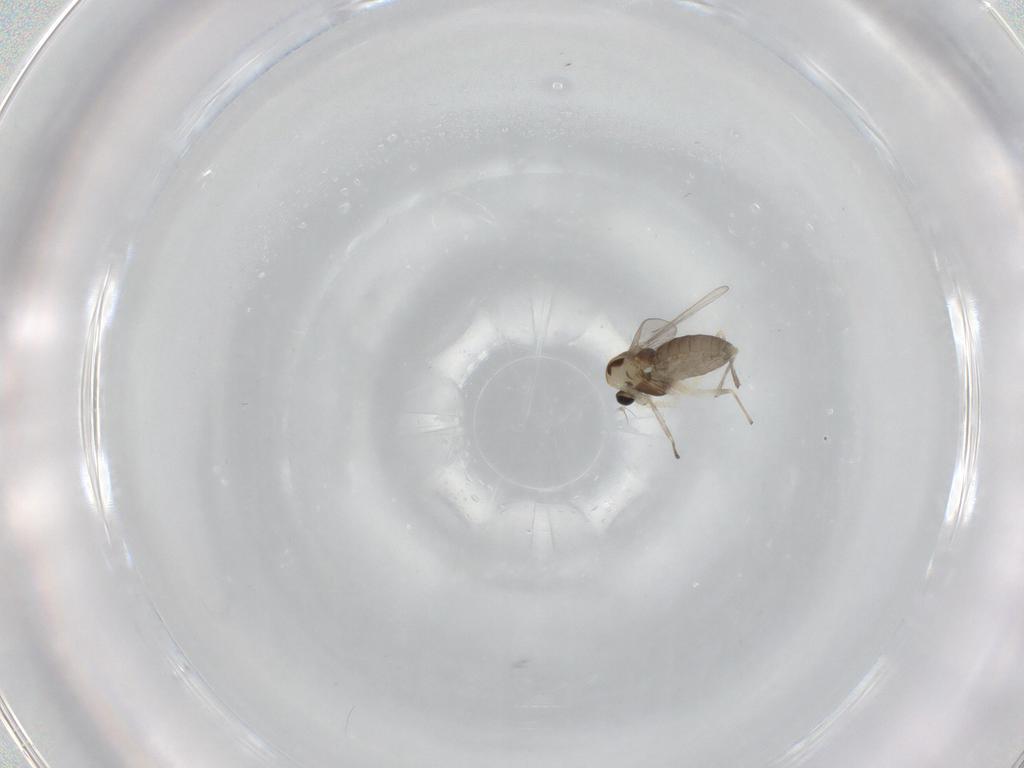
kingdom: Animalia
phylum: Arthropoda
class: Insecta
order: Diptera
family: Chironomidae
